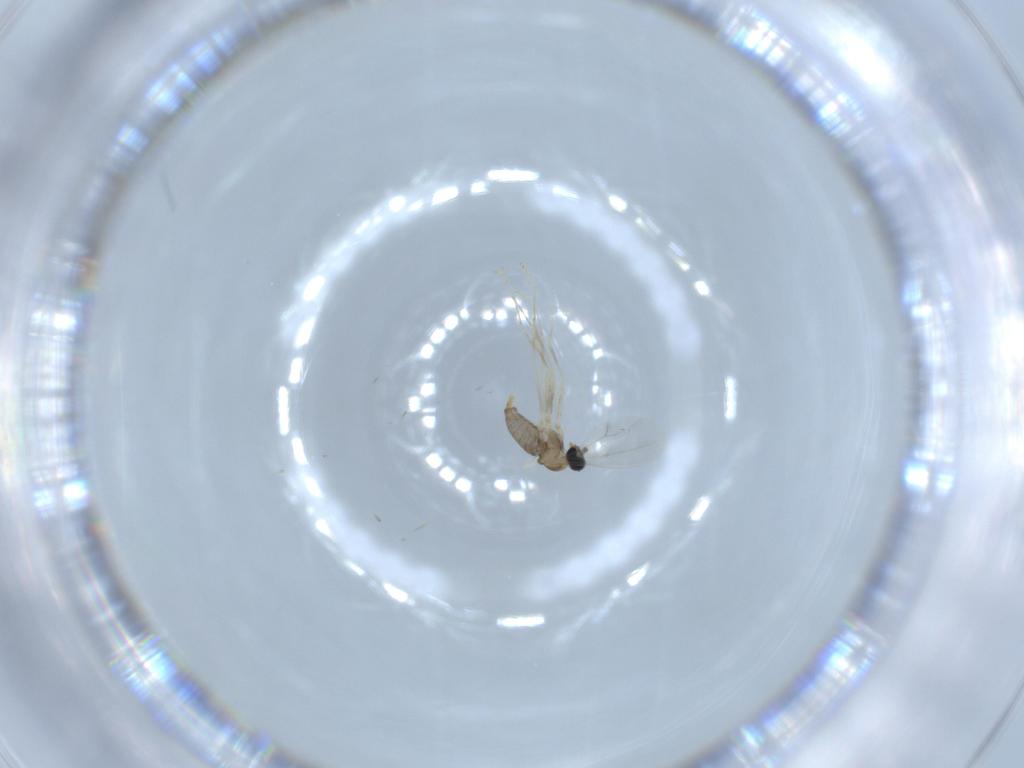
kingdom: Animalia
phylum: Arthropoda
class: Insecta
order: Diptera
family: Cecidomyiidae
